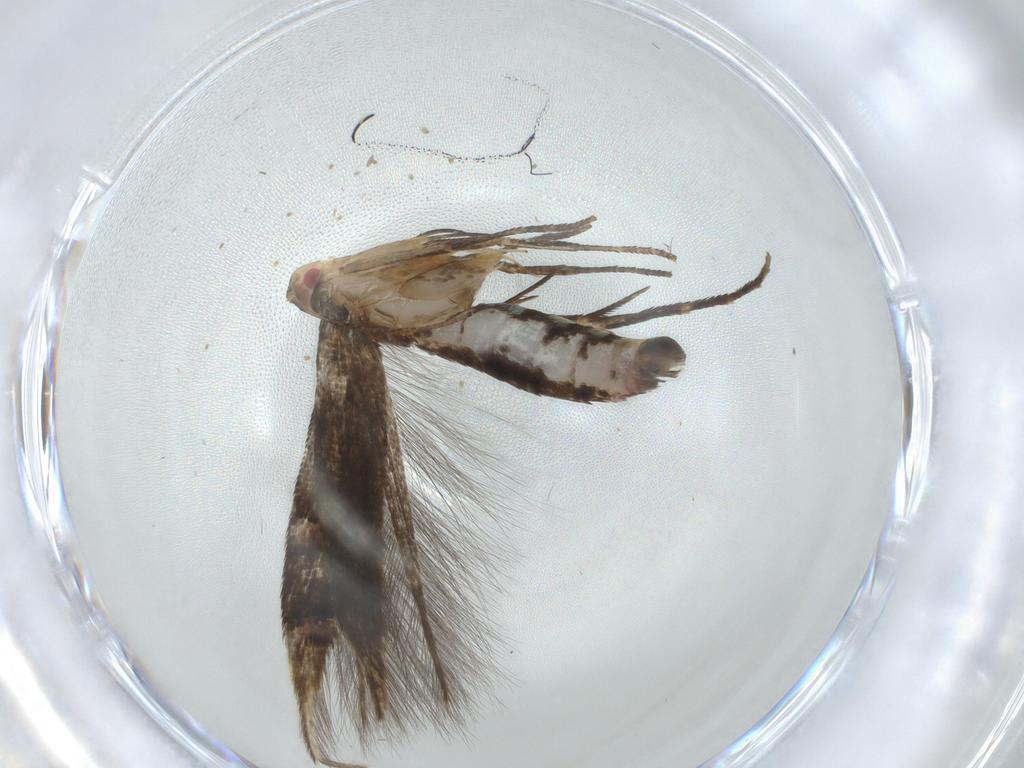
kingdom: Animalia
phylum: Arthropoda
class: Insecta
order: Lepidoptera
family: Cosmopterigidae
